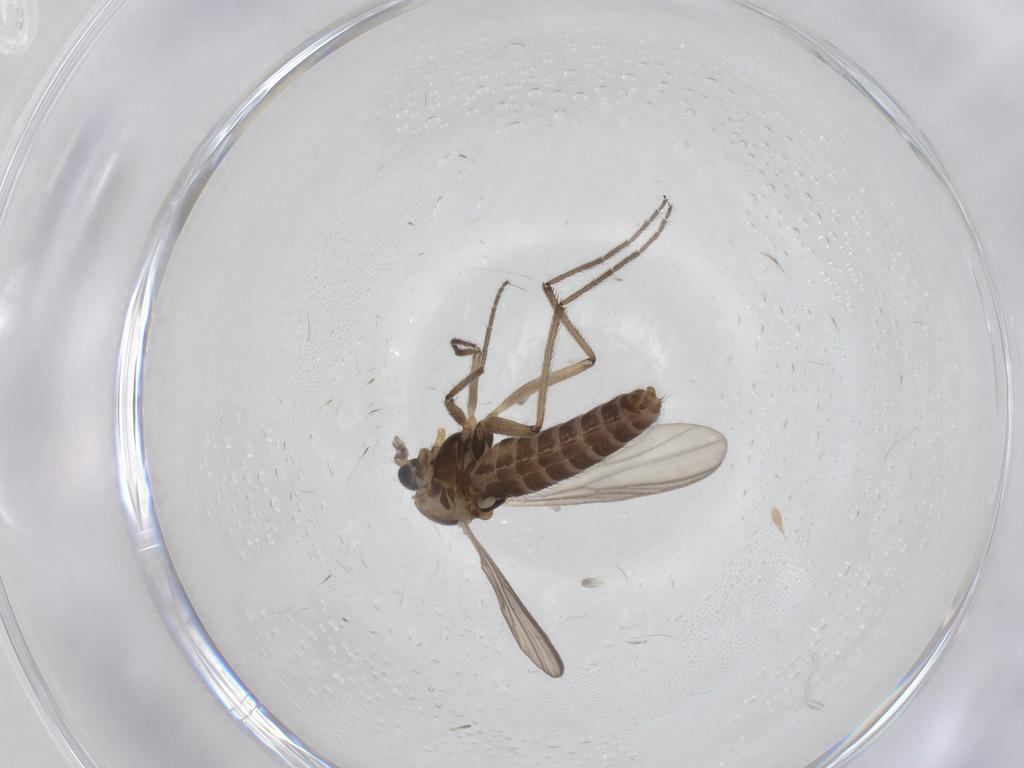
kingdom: Animalia
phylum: Arthropoda
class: Insecta
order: Diptera
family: Chironomidae
